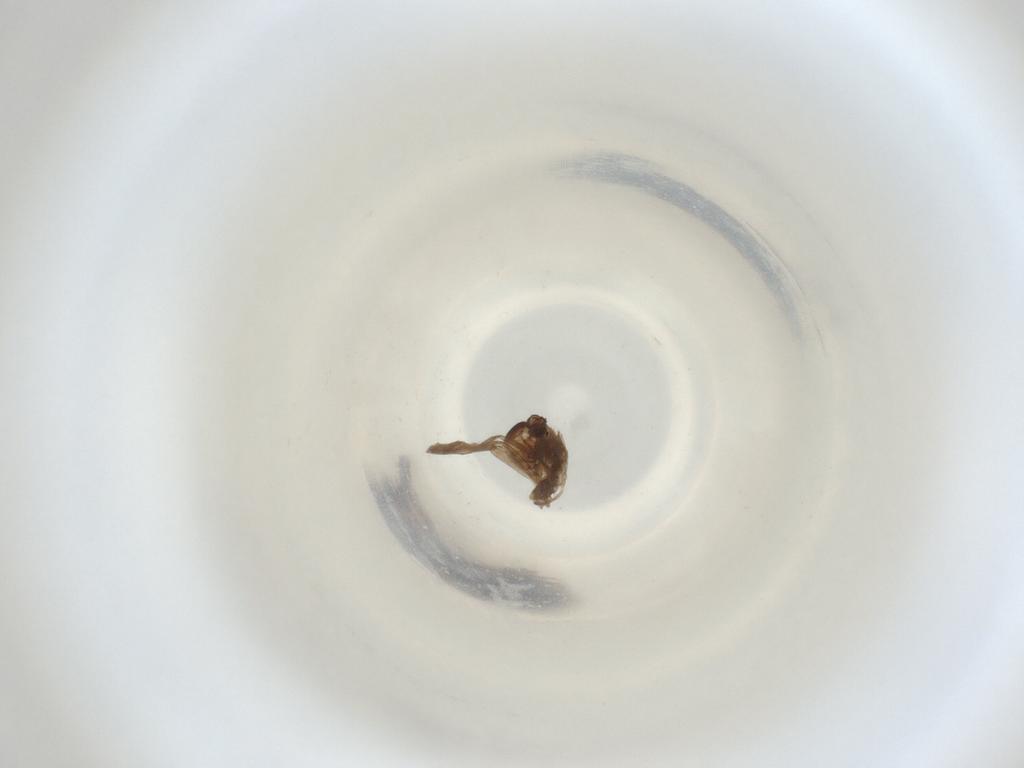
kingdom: Animalia
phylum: Arthropoda
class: Insecta
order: Diptera
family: Cecidomyiidae
